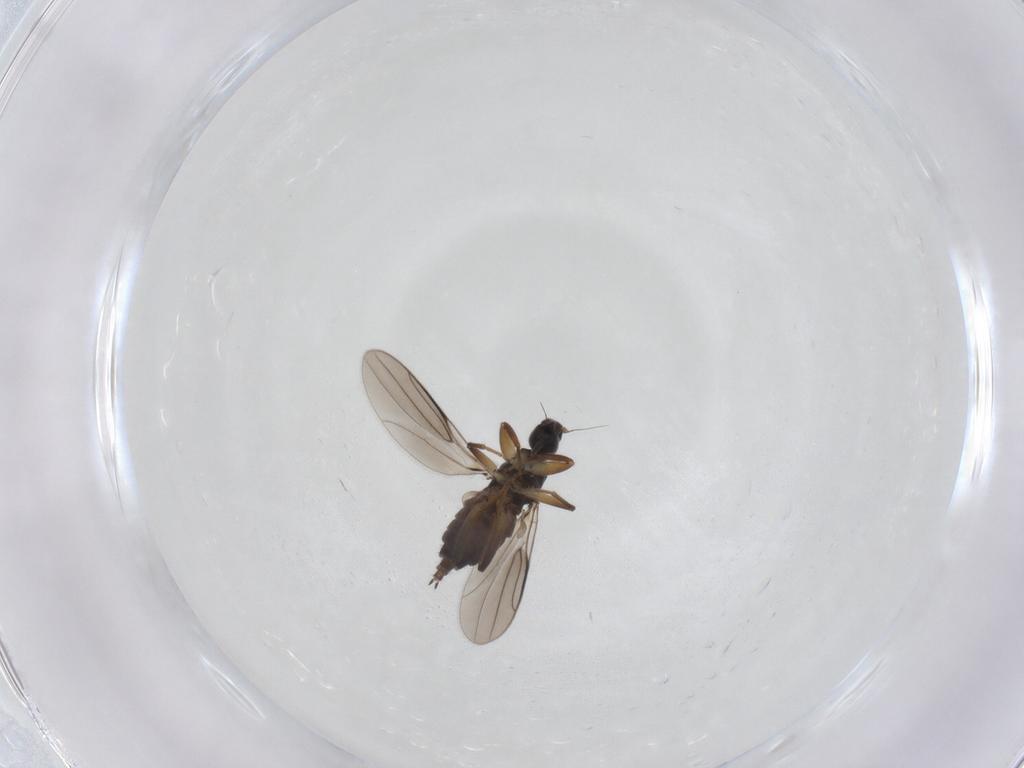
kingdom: Animalia
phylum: Arthropoda
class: Insecta
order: Diptera
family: Hybotidae
